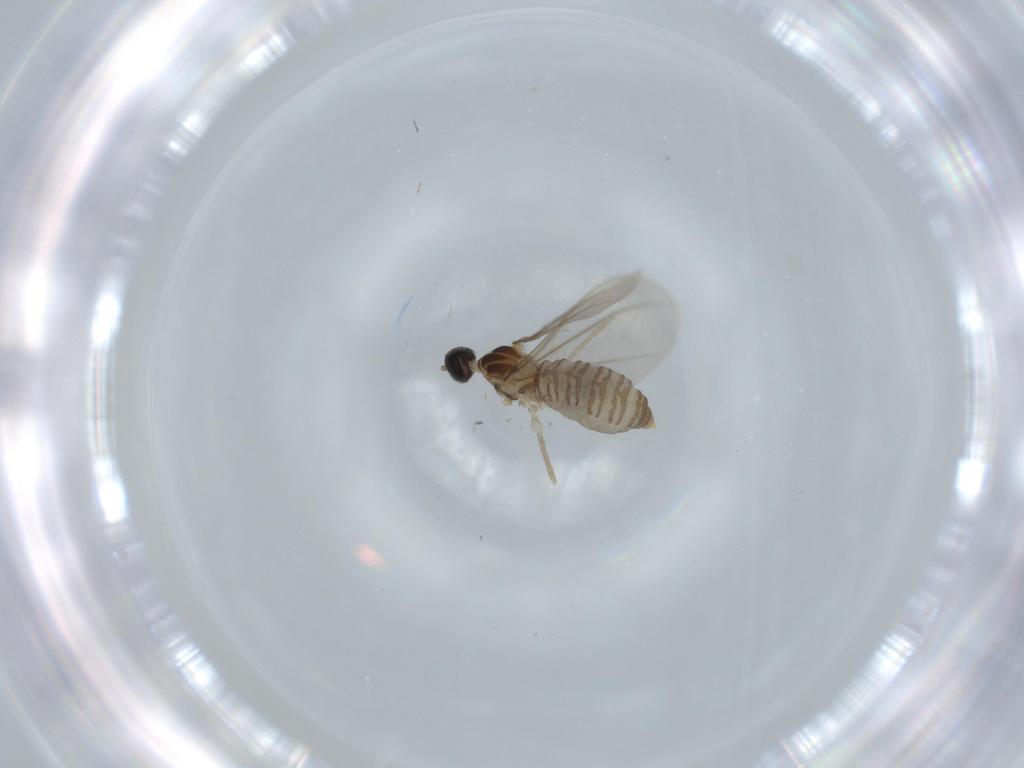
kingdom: Animalia
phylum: Arthropoda
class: Insecta
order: Diptera
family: Cecidomyiidae
